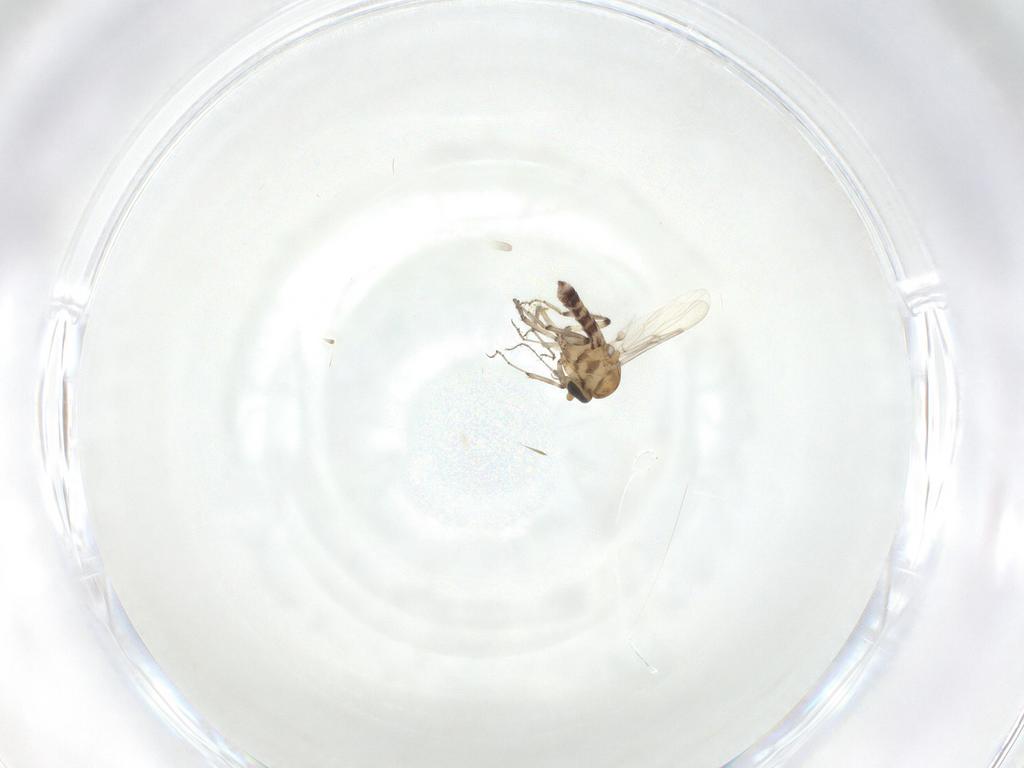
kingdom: Animalia
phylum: Arthropoda
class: Insecta
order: Diptera
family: Ceratopogonidae
